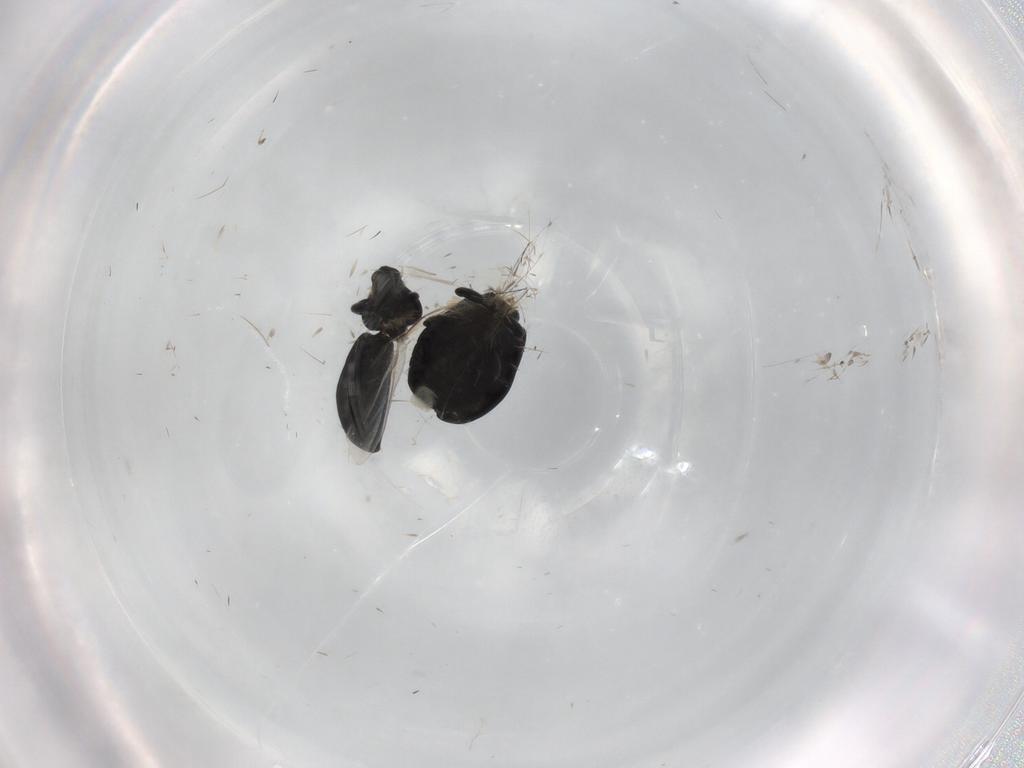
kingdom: Animalia
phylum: Arthropoda
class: Insecta
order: Coleoptera
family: Curculionidae
